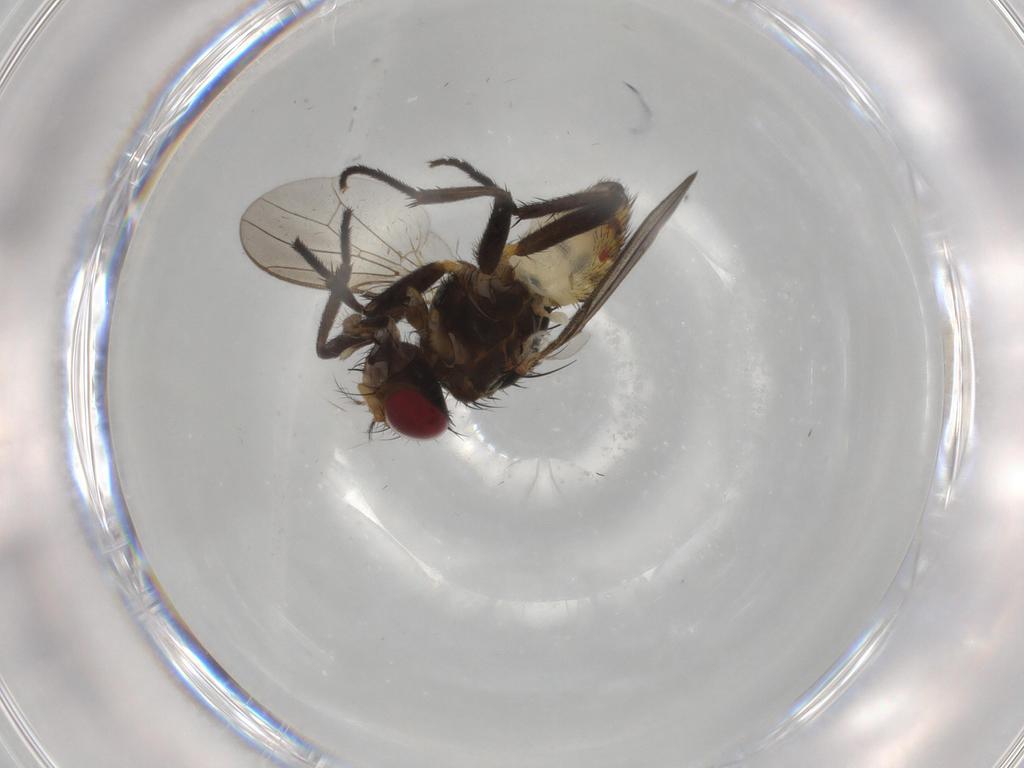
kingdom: Animalia
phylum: Arthropoda
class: Insecta
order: Diptera
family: Anthomyiidae
